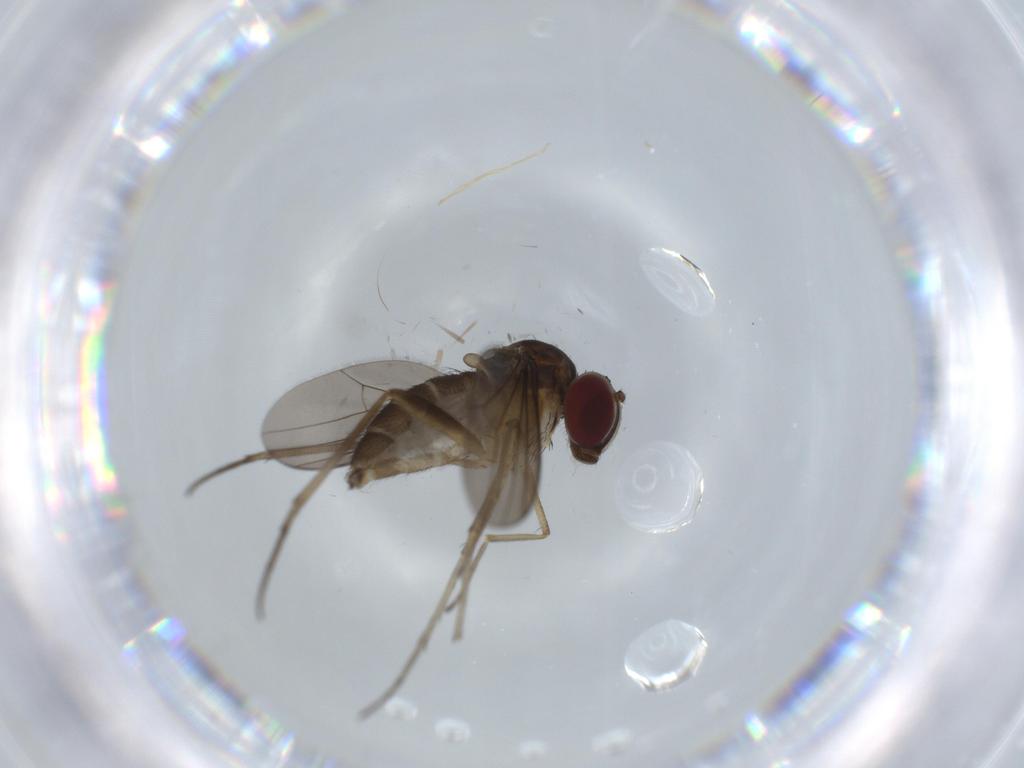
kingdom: Animalia
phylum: Arthropoda
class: Insecta
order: Diptera
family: Dolichopodidae
